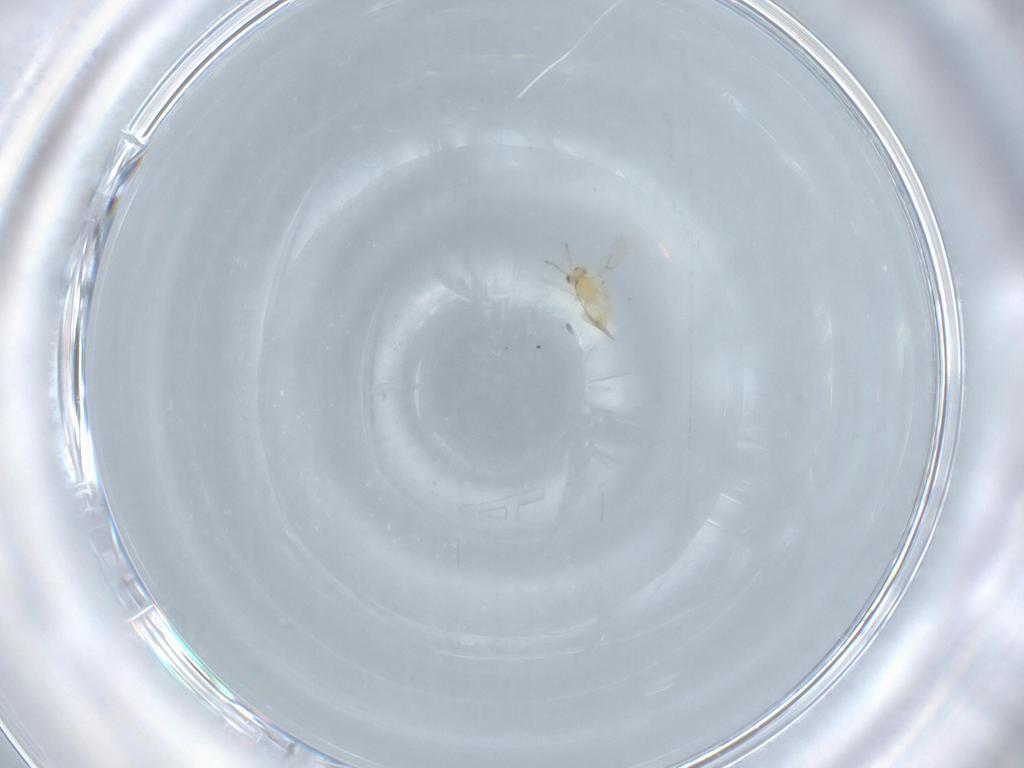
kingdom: Animalia
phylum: Arthropoda
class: Insecta
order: Hymenoptera
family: Aphelinidae
